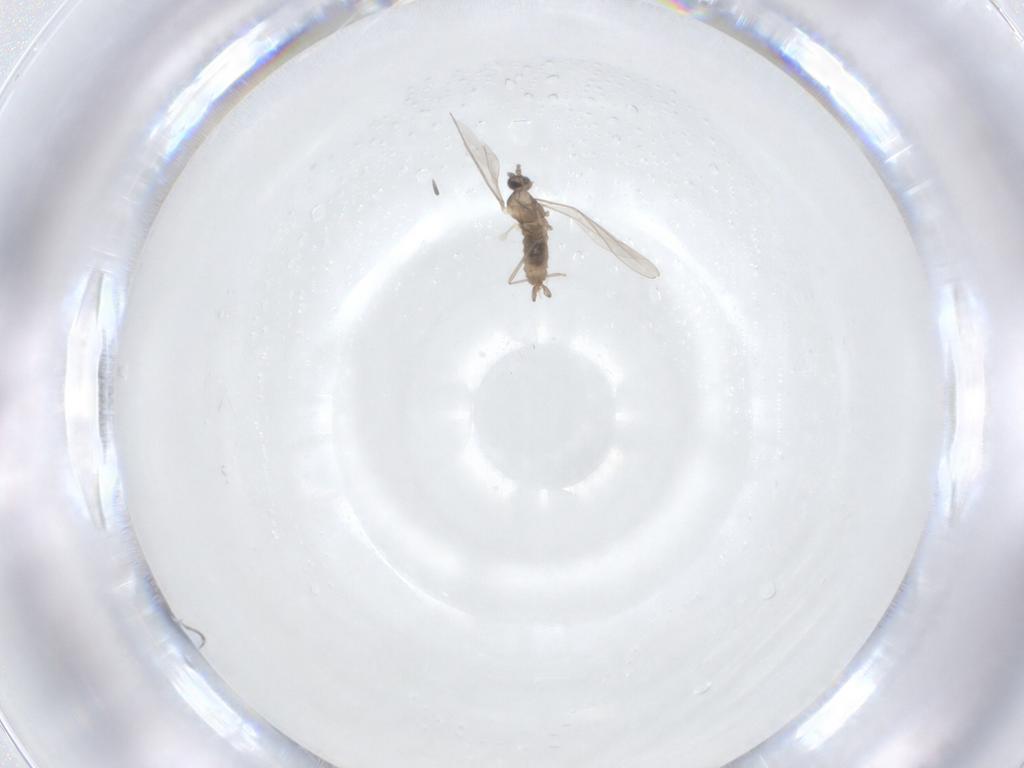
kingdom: Animalia
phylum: Arthropoda
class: Insecta
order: Diptera
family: Cecidomyiidae
